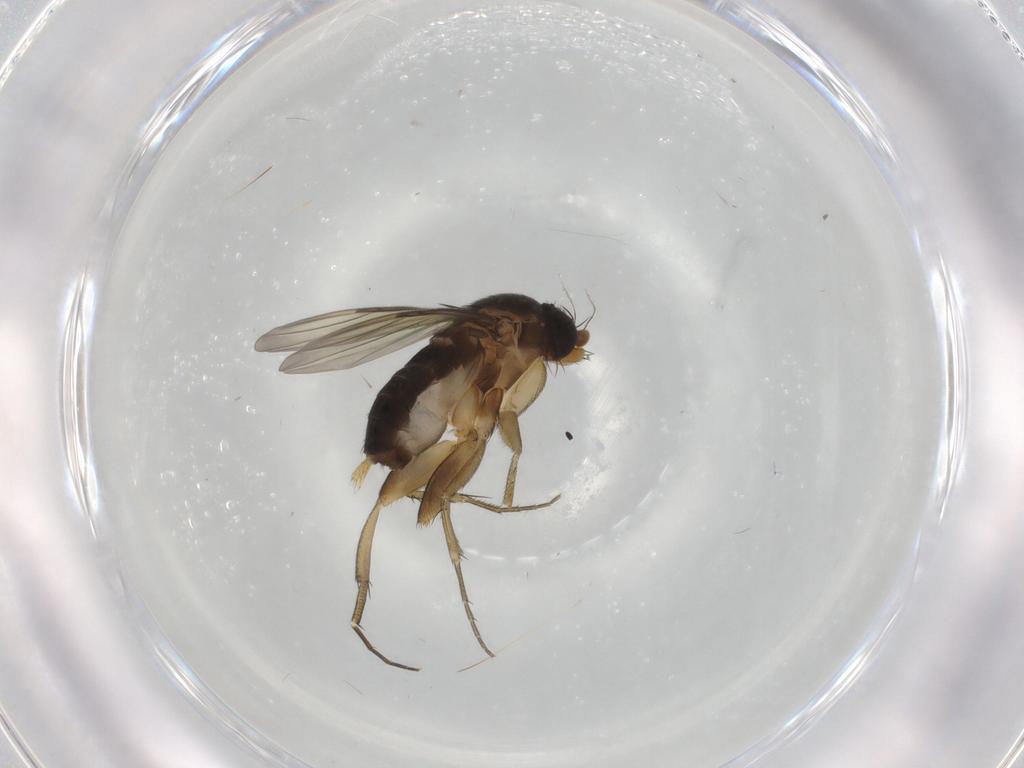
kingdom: Animalia
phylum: Arthropoda
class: Insecta
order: Diptera
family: Phoridae
